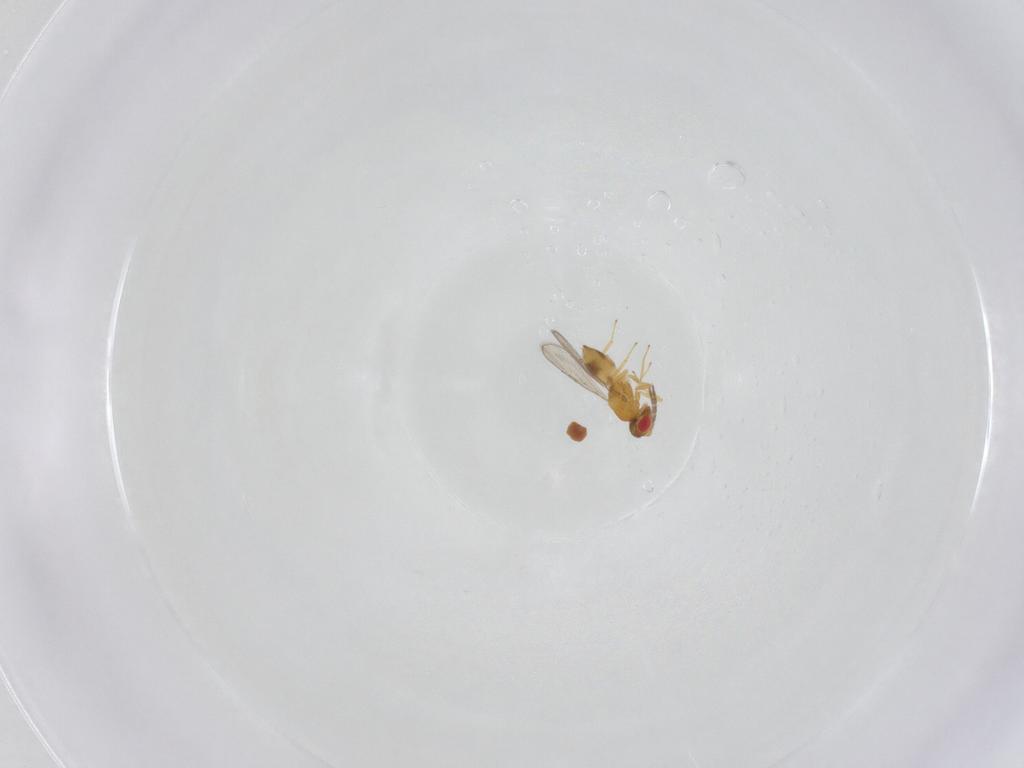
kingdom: Animalia
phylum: Arthropoda
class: Insecta
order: Hymenoptera
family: Eulophidae
